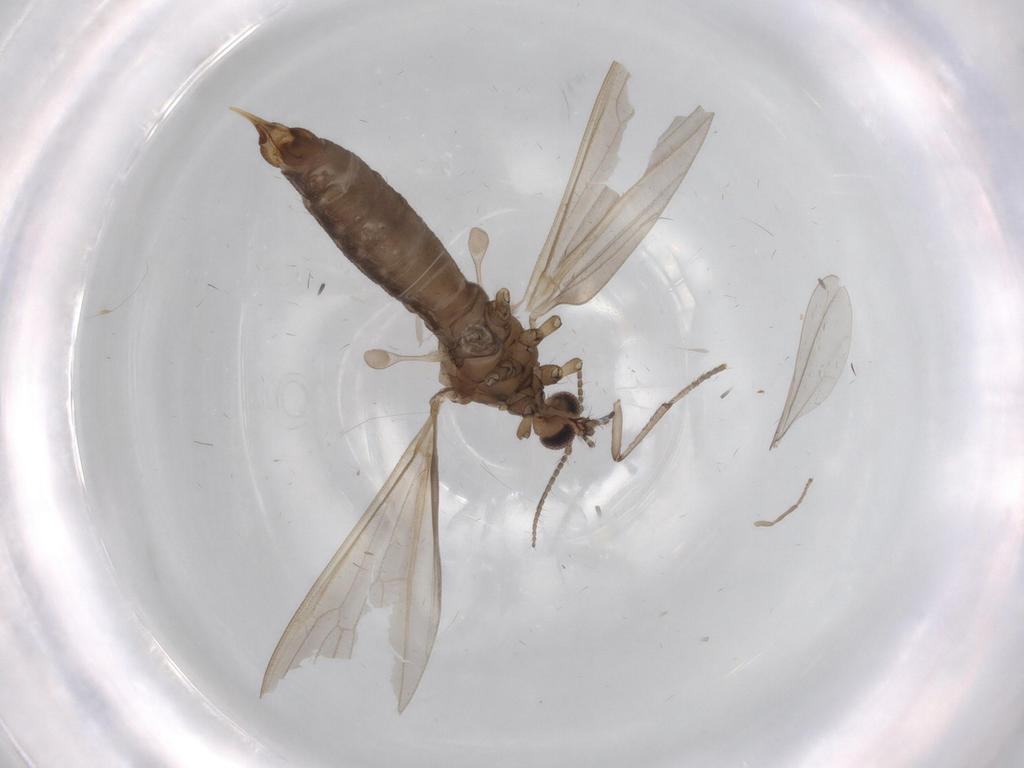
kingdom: Animalia
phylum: Arthropoda
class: Insecta
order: Diptera
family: Limoniidae
